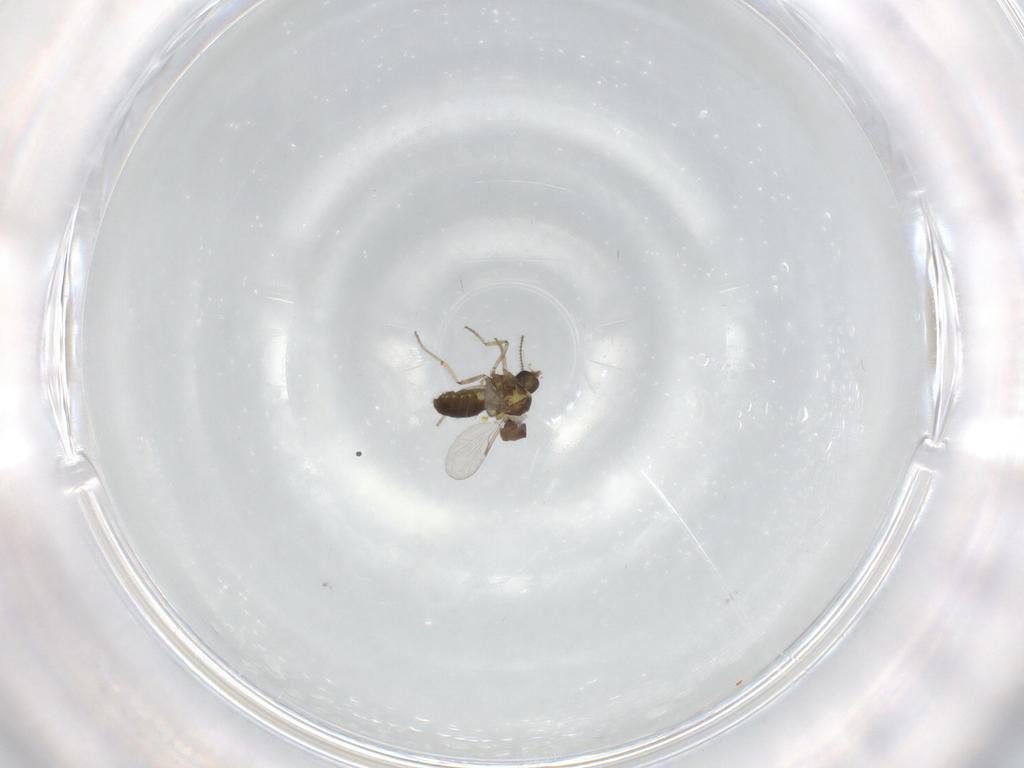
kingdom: Animalia
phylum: Arthropoda
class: Insecta
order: Diptera
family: Ceratopogonidae
